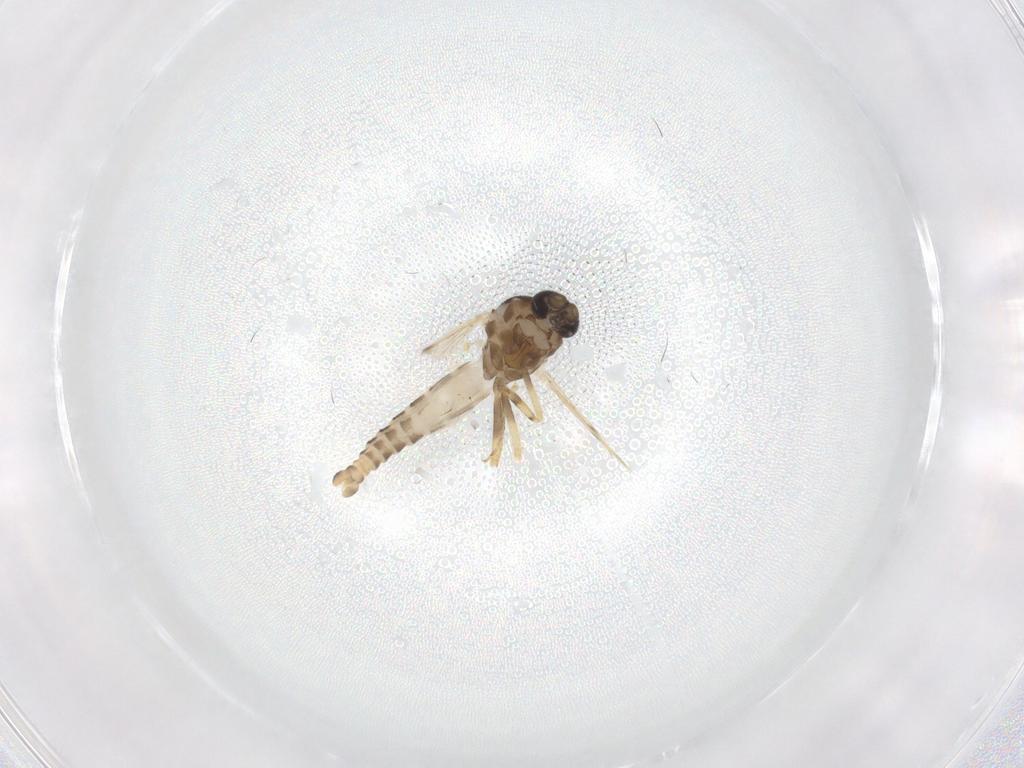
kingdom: Animalia
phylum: Arthropoda
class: Insecta
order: Diptera
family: Ceratopogonidae
